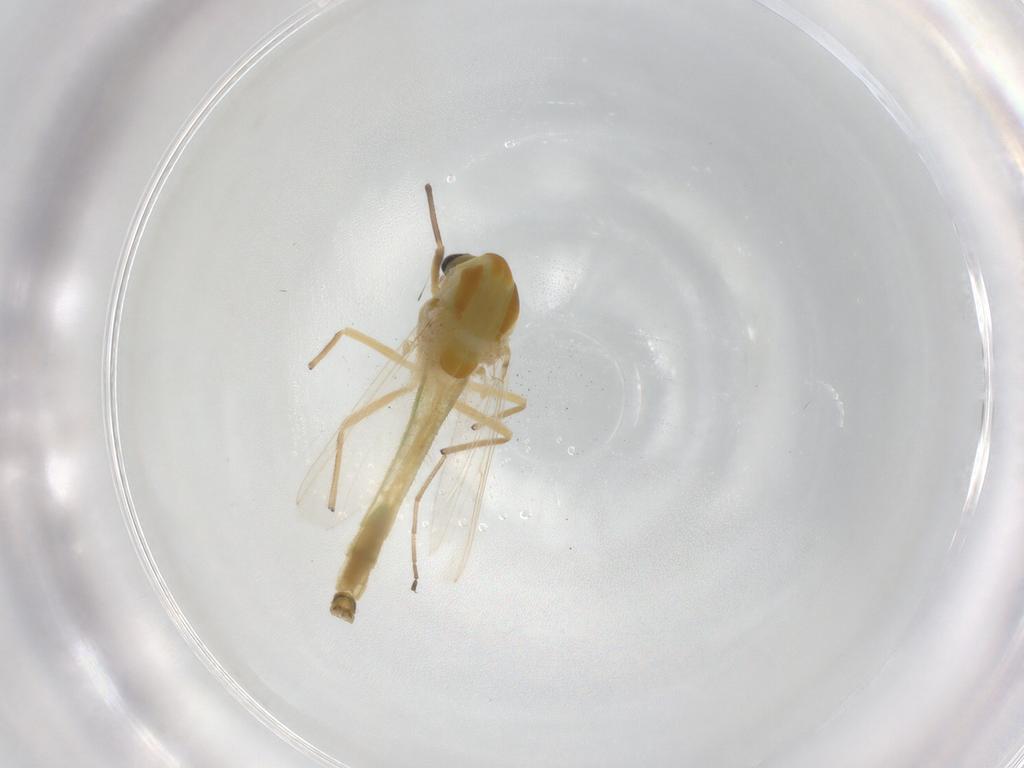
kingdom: Animalia
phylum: Arthropoda
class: Insecta
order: Diptera
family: Chironomidae
